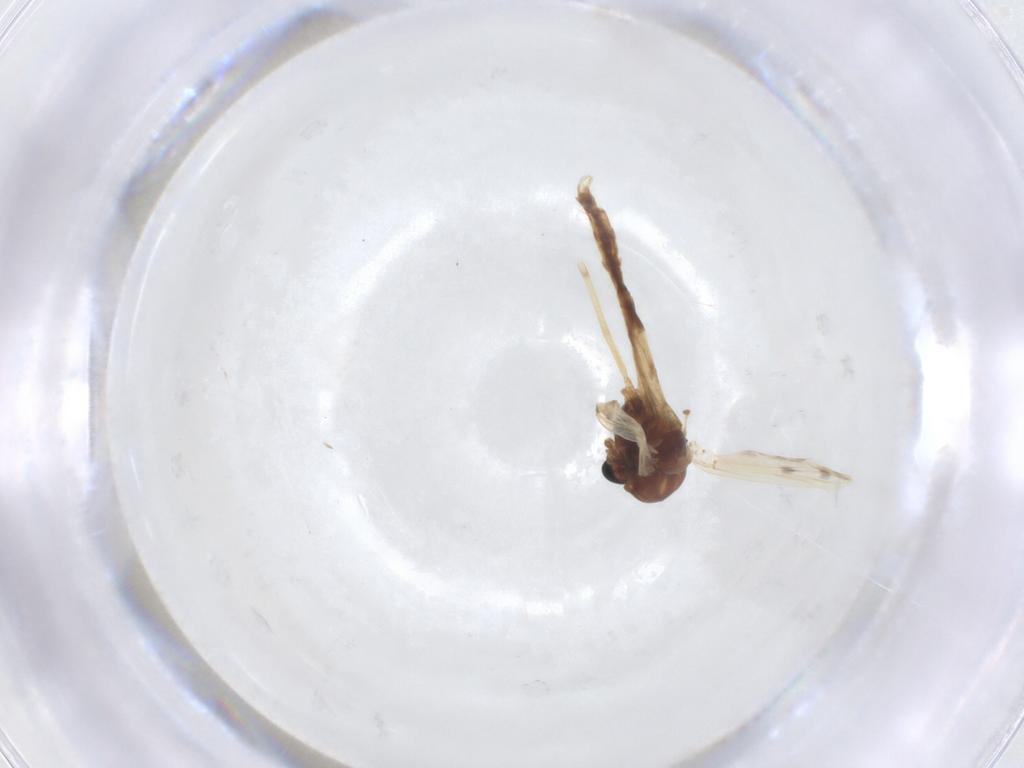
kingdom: Animalia
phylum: Arthropoda
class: Insecta
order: Diptera
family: Chironomidae
